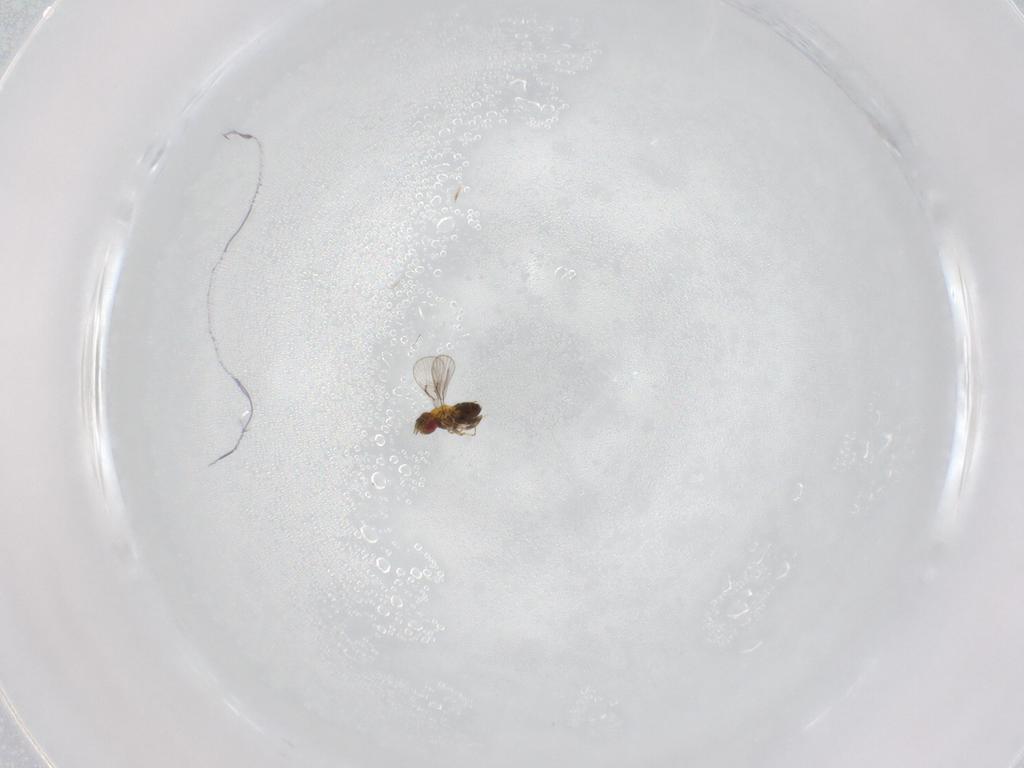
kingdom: Animalia
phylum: Arthropoda
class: Insecta
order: Hymenoptera
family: Trichogrammatidae
